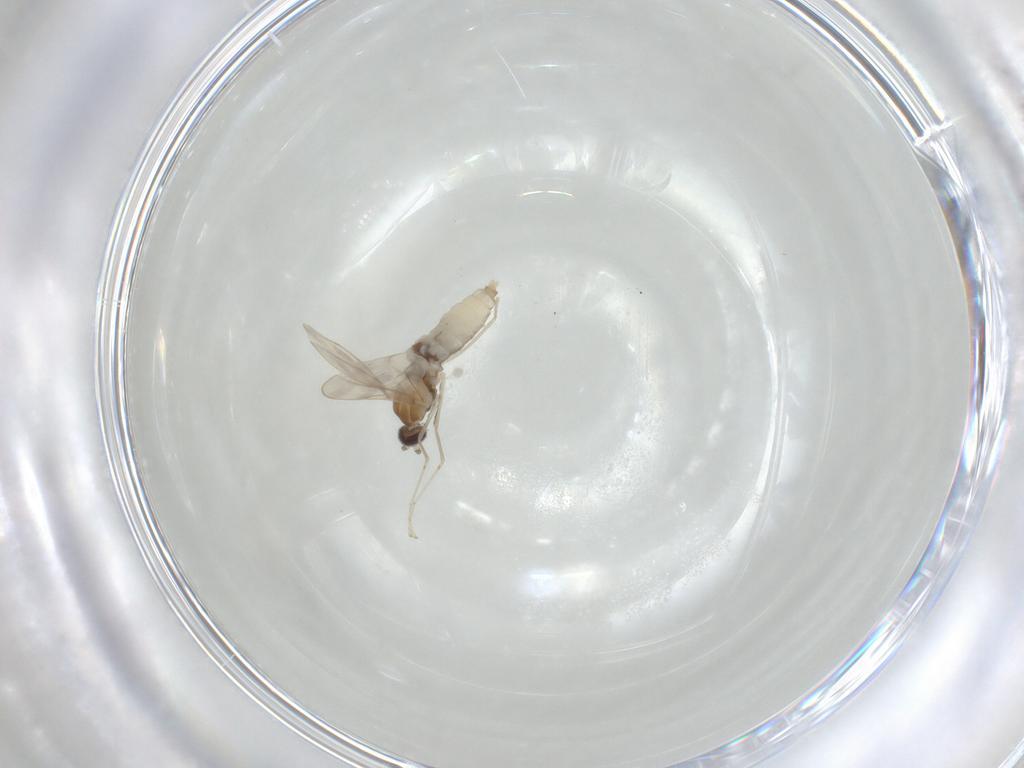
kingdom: Animalia
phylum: Arthropoda
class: Insecta
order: Diptera
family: Cecidomyiidae
